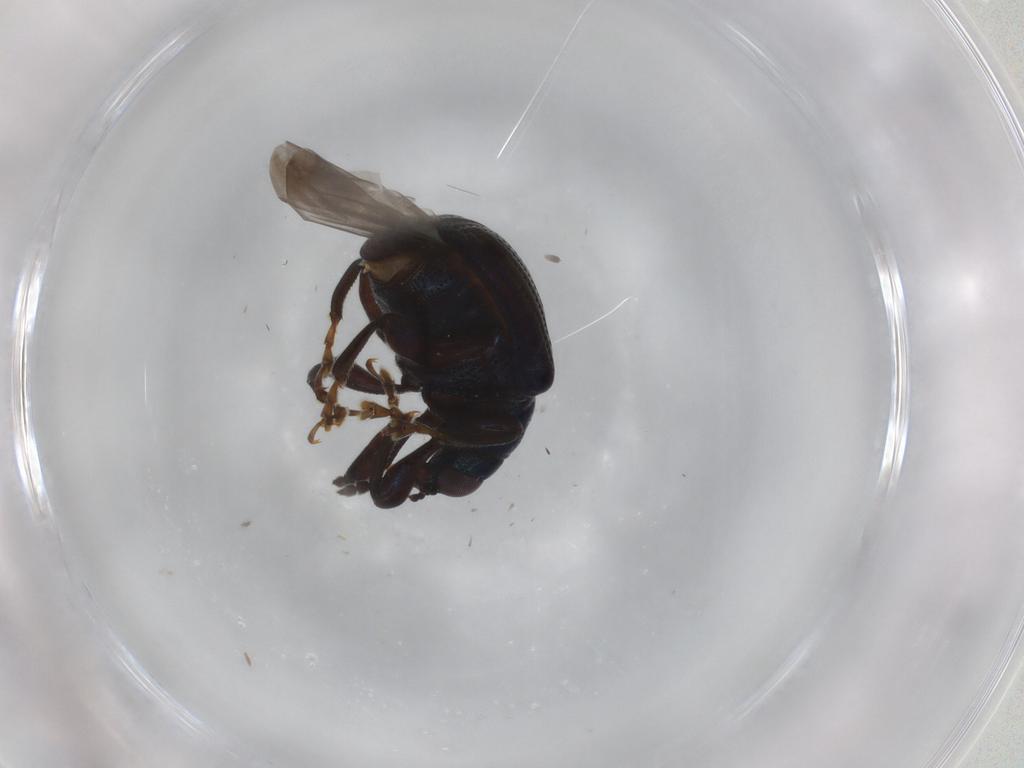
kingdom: Animalia
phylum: Arthropoda
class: Insecta
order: Coleoptera
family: Attelabidae
